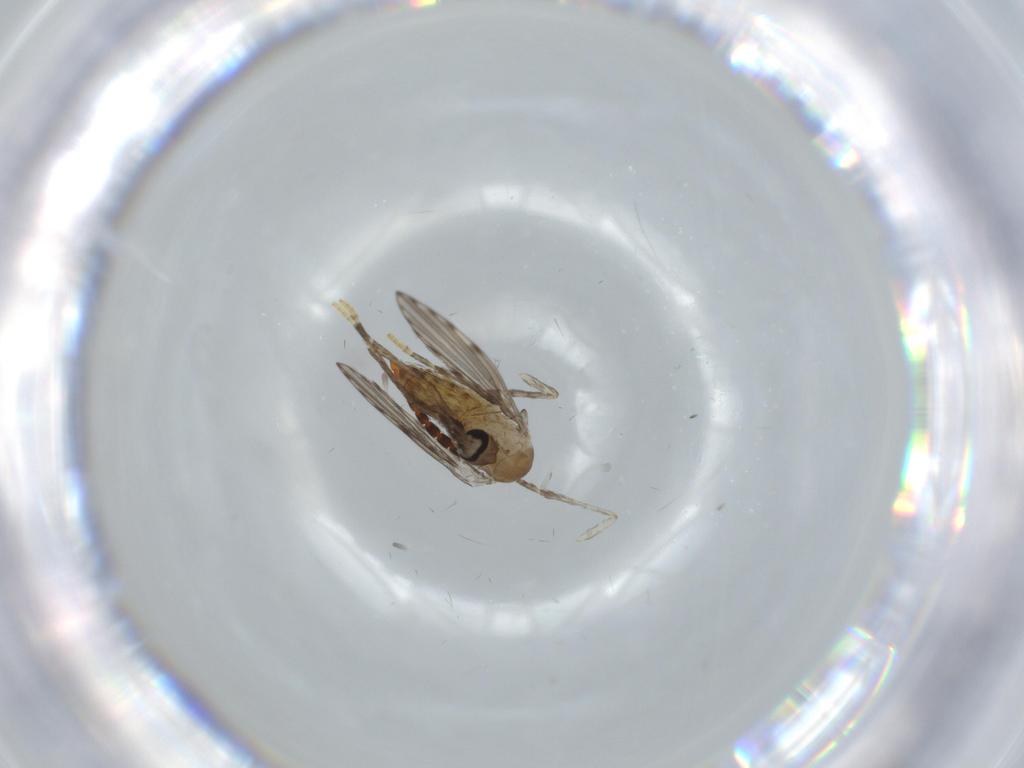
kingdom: Animalia
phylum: Arthropoda
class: Insecta
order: Diptera
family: Psychodidae
